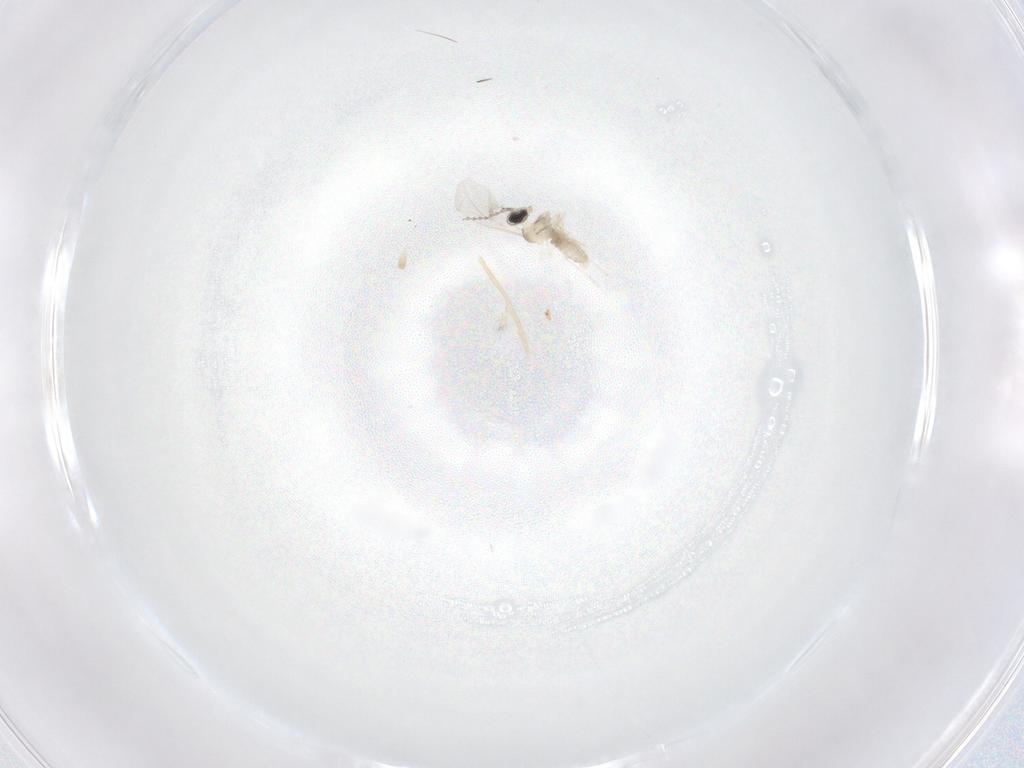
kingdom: Animalia
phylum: Arthropoda
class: Insecta
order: Diptera
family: Cecidomyiidae
